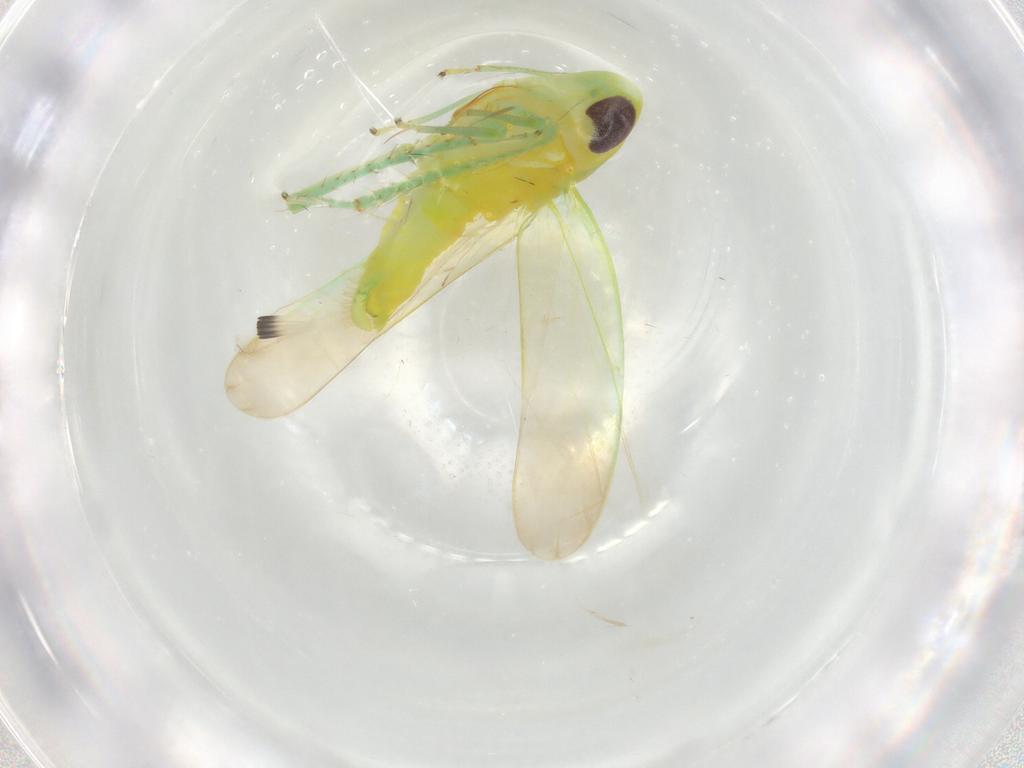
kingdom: Animalia
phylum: Arthropoda
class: Insecta
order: Hemiptera
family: Cicadellidae
